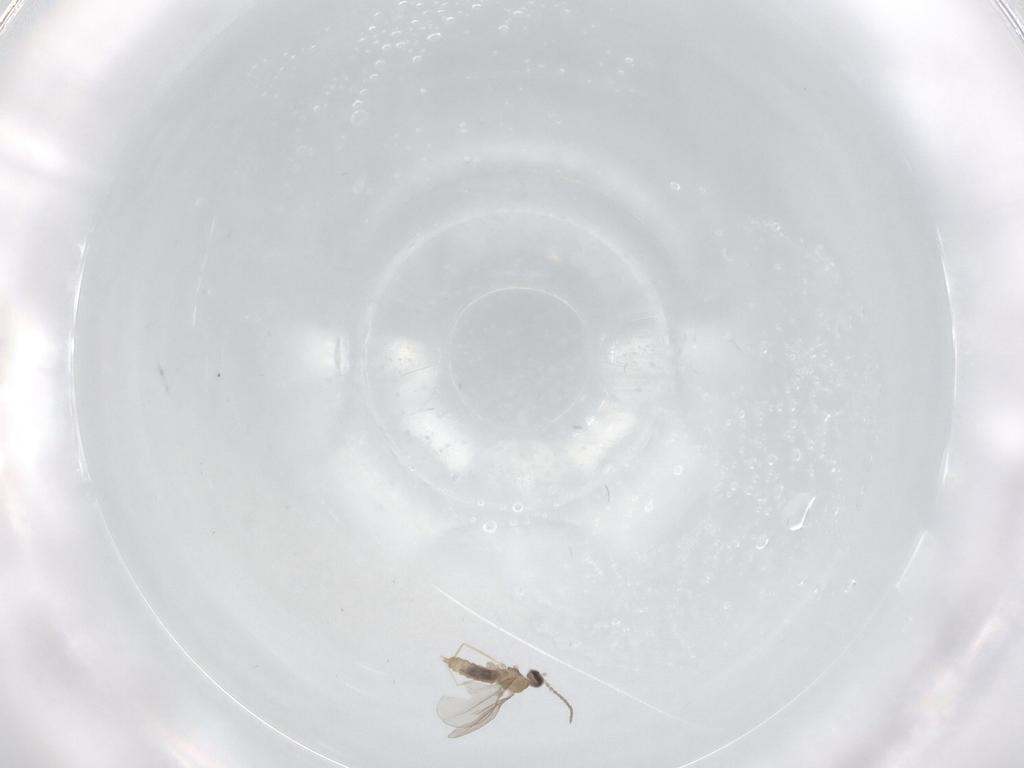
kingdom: Animalia
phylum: Arthropoda
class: Insecta
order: Diptera
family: Cecidomyiidae
